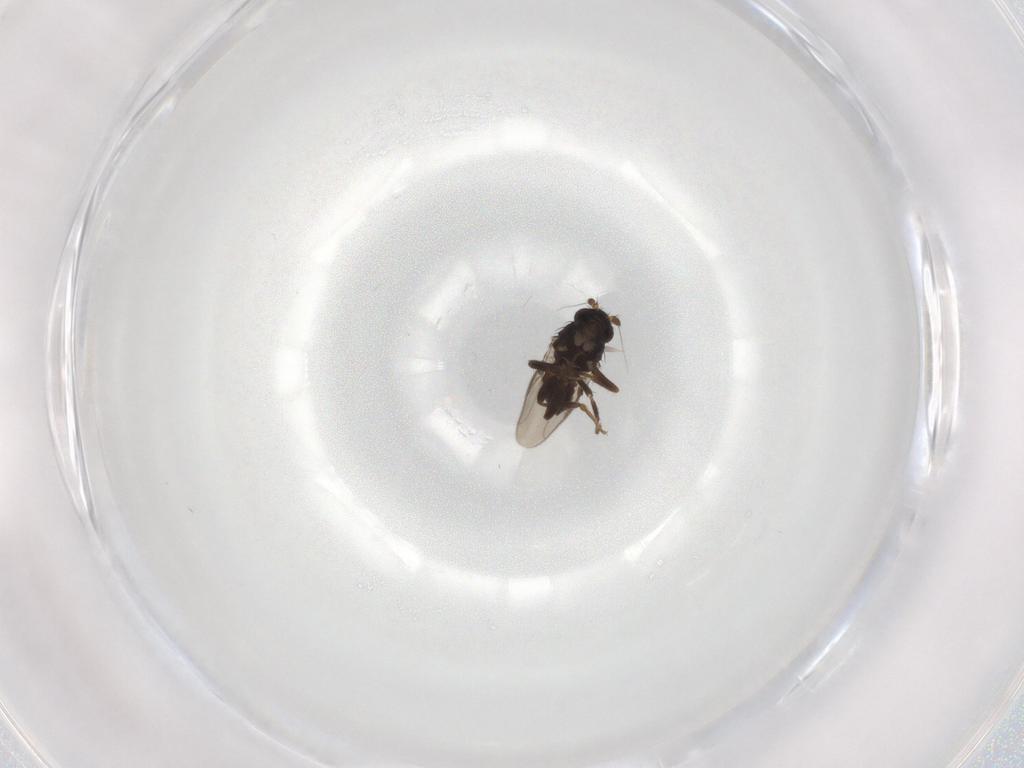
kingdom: Animalia
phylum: Arthropoda
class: Insecta
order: Diptera
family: Sphaeroceridae
